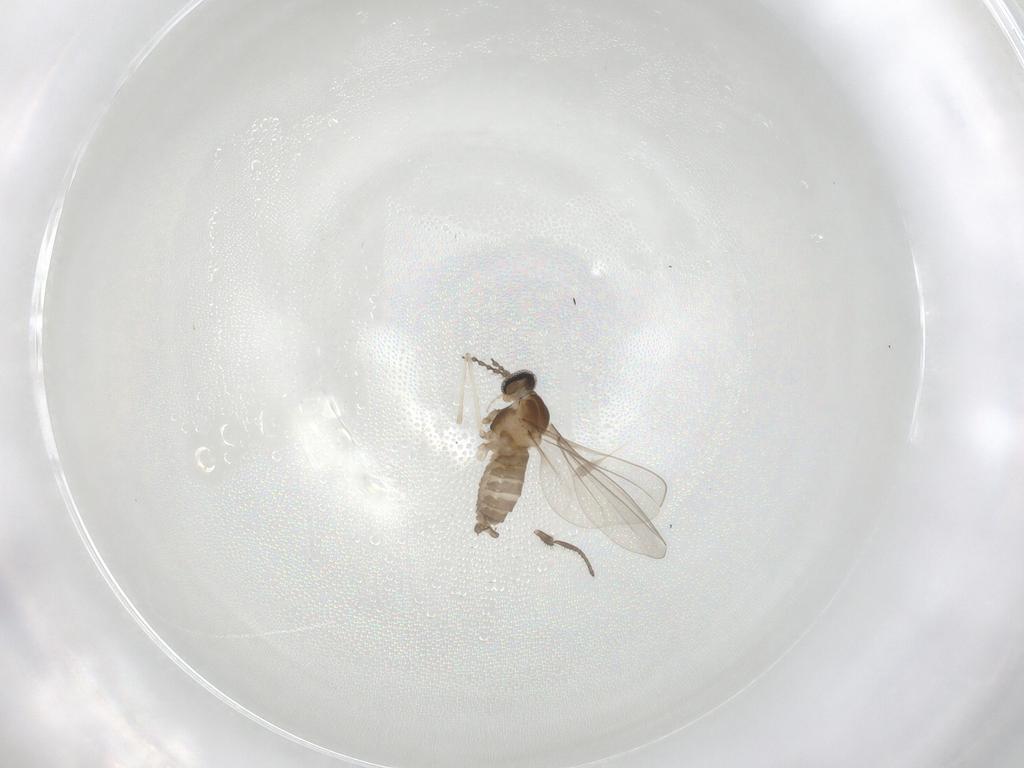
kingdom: Animalia
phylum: Arthropoda
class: Insecta
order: Diptera
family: Cecidomyiidae
